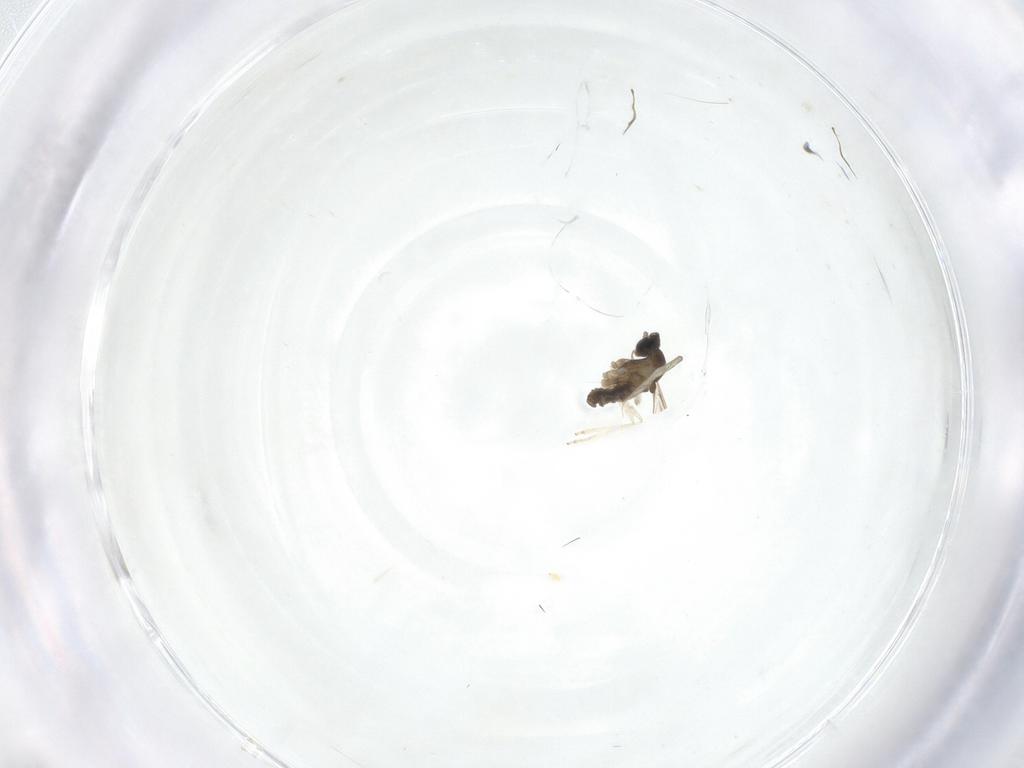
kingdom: Animalia
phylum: Arthropoda
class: Insecta
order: Diptera
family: Cecidomyiidae
